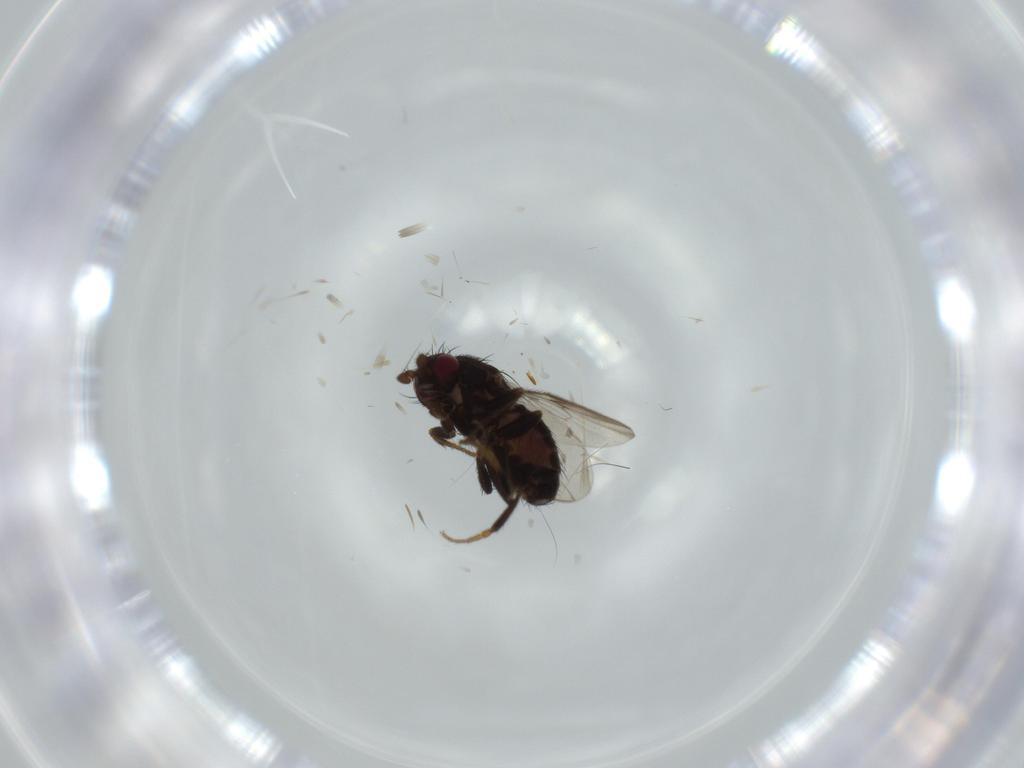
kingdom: Animalia
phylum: Arthropoda
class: Insecta
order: Diptera
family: Sphaeroceridae
